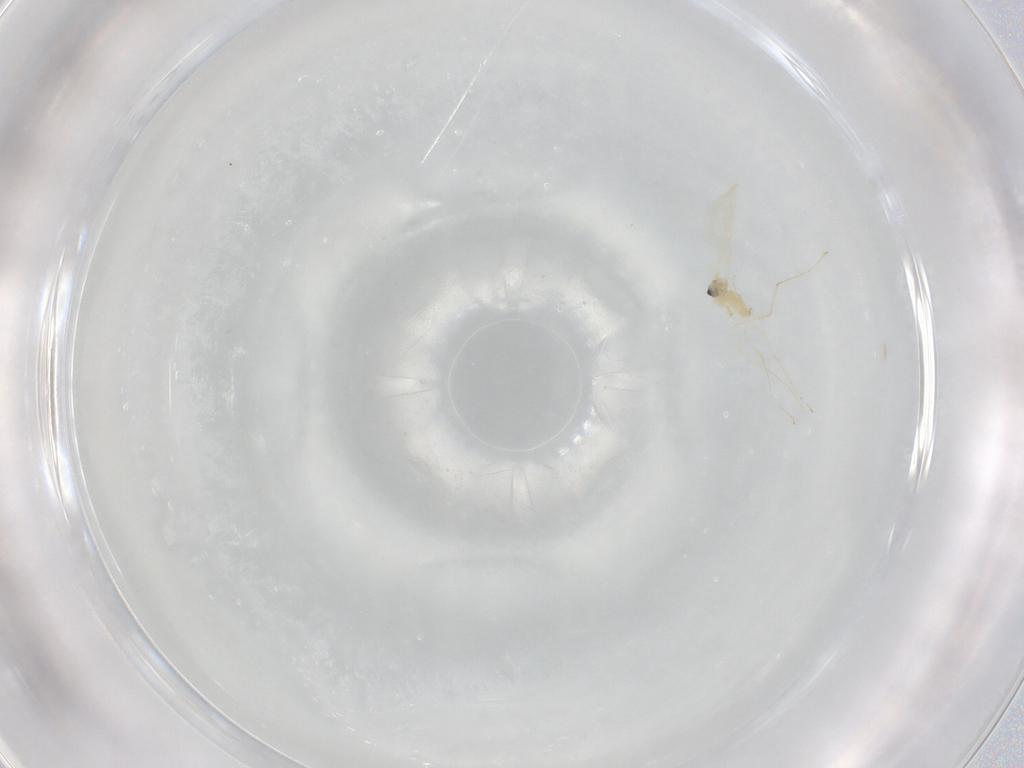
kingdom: Animalia
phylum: Arthropoda
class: Insecta
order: Diptera
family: Cecidomyiidae
